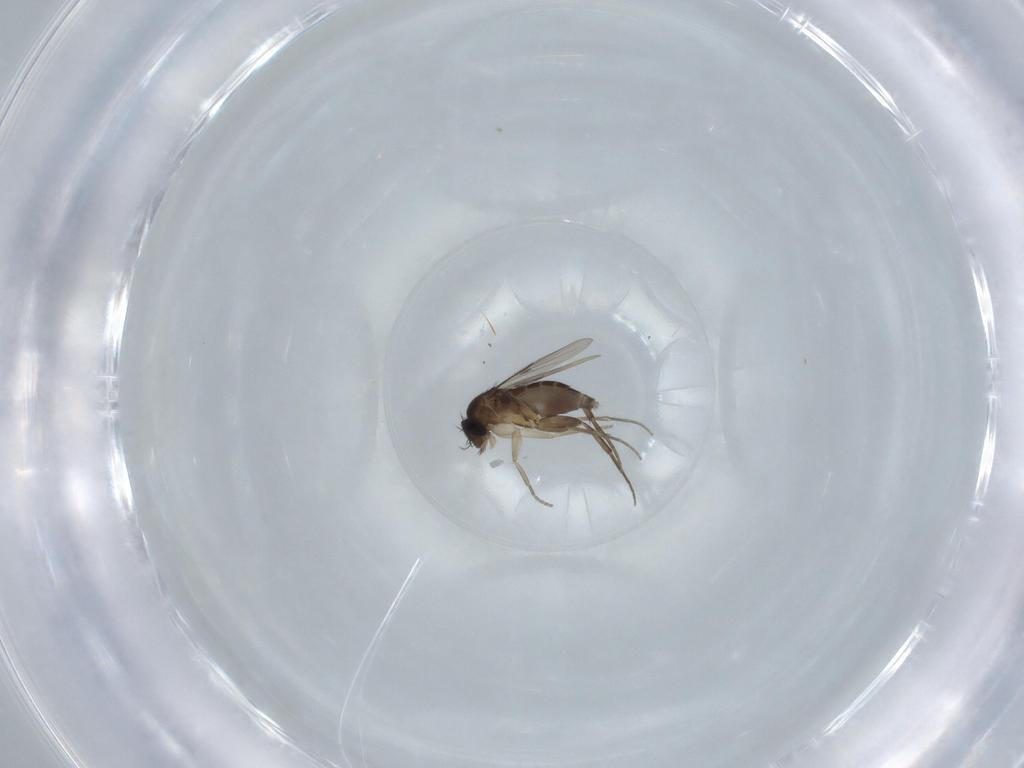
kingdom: Animalia
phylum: Arthropoda
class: Insecta
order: Diptera
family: Phoridae
